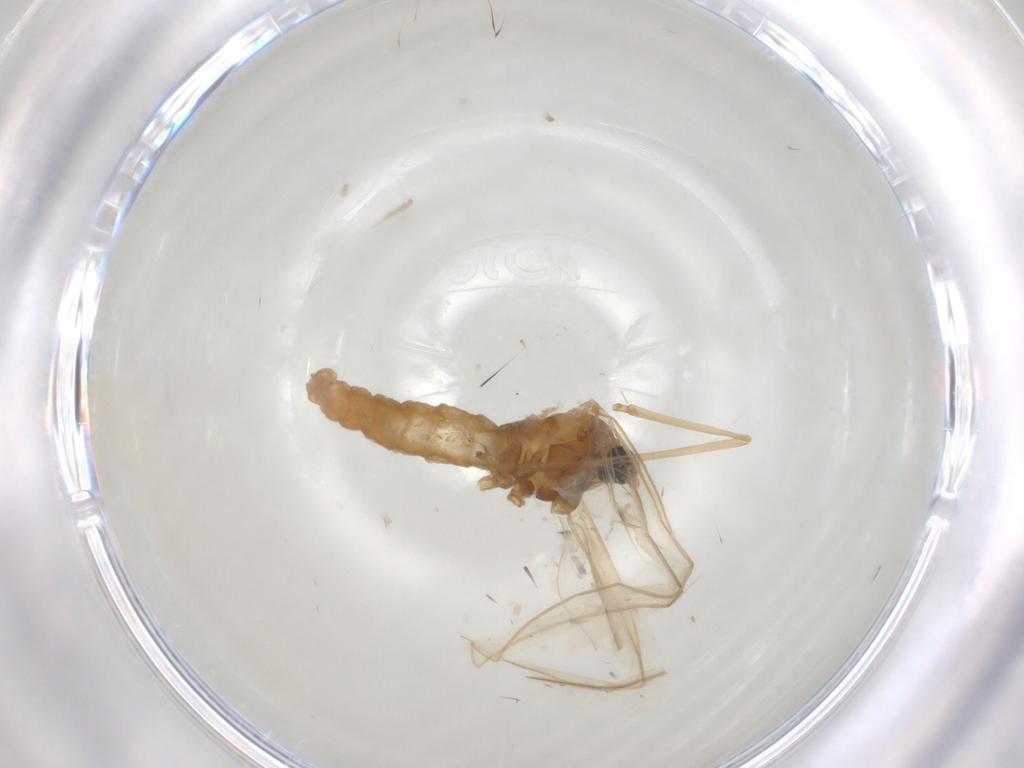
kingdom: Animalia
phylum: Arthropoda
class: Insecta
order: Diptera
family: Cecidomyiidae
